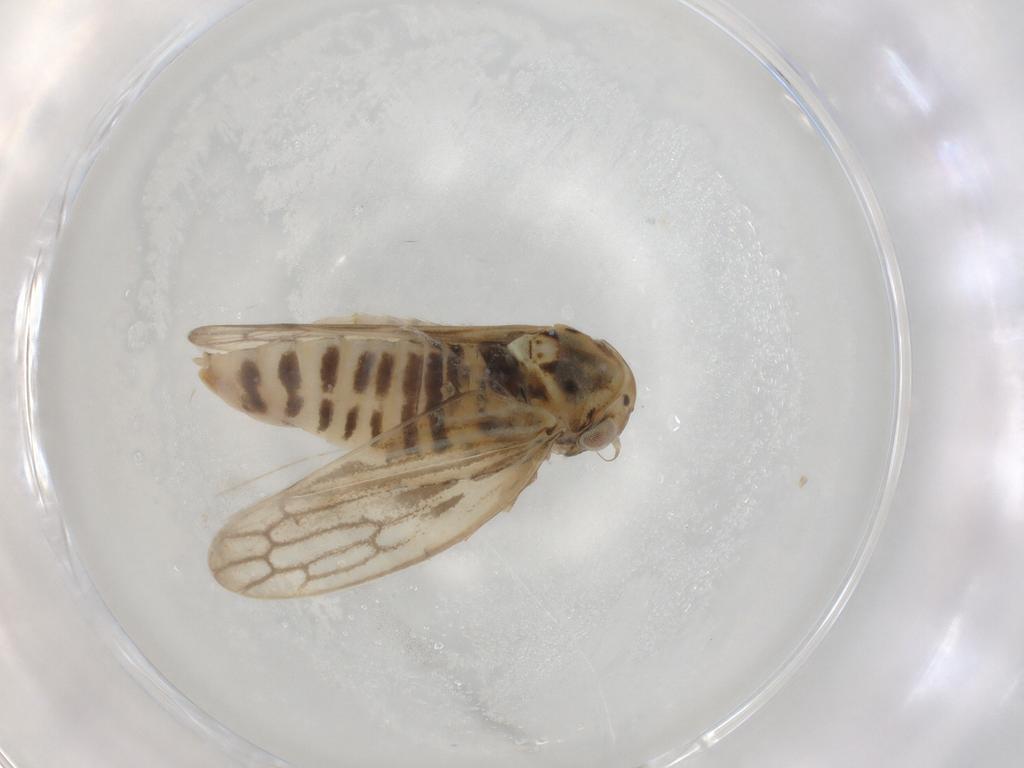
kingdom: Animalia
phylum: Arthropoda
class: Insecta
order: Hemiptera
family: Cicadellidae
